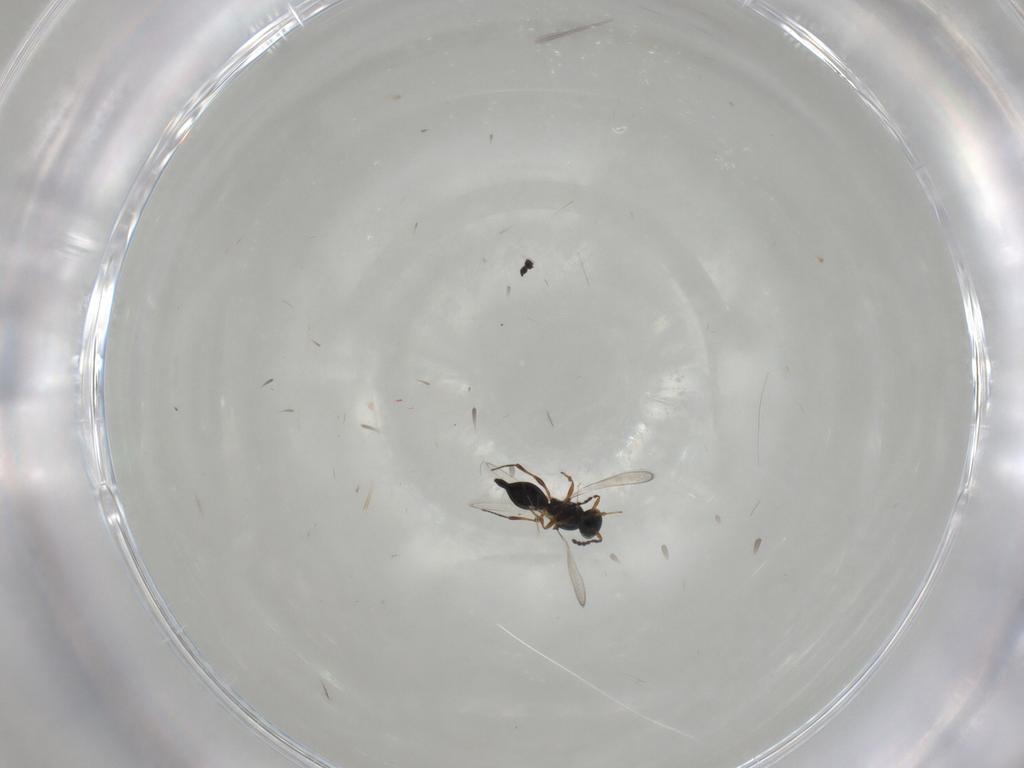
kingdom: Animalia
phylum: Arthropoda
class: Insecta
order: Hymenoptera
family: Platygastridae
